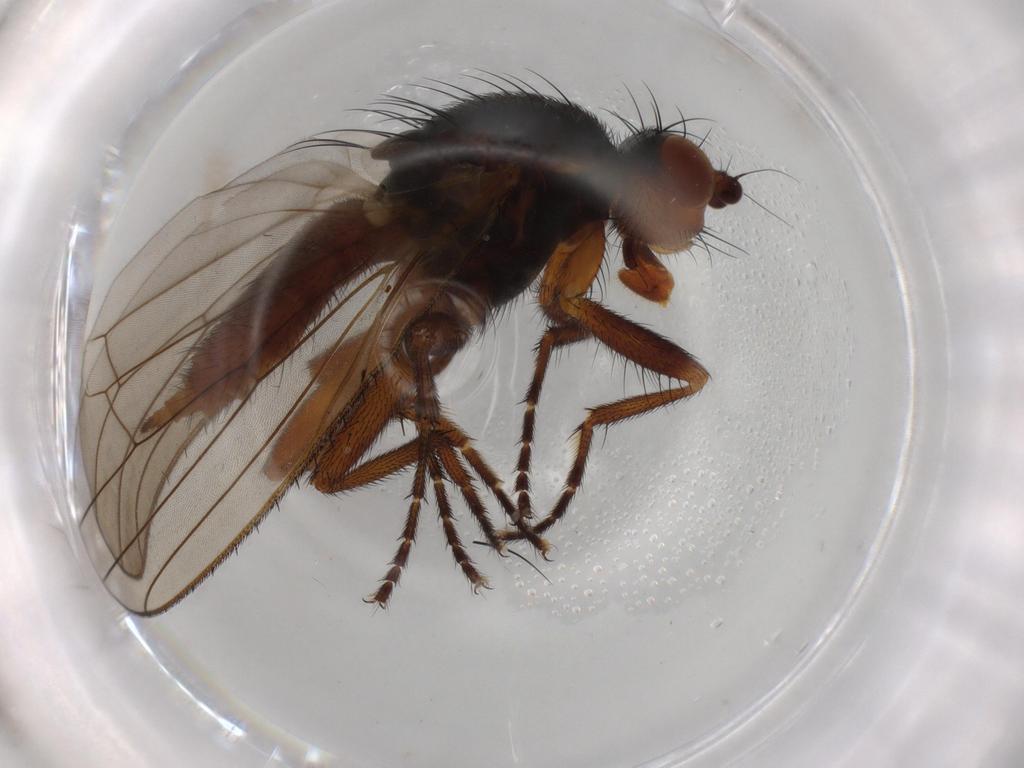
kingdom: Animalia
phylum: Arthropoda
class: Insecta
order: Diptera
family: Heleomyzidae
